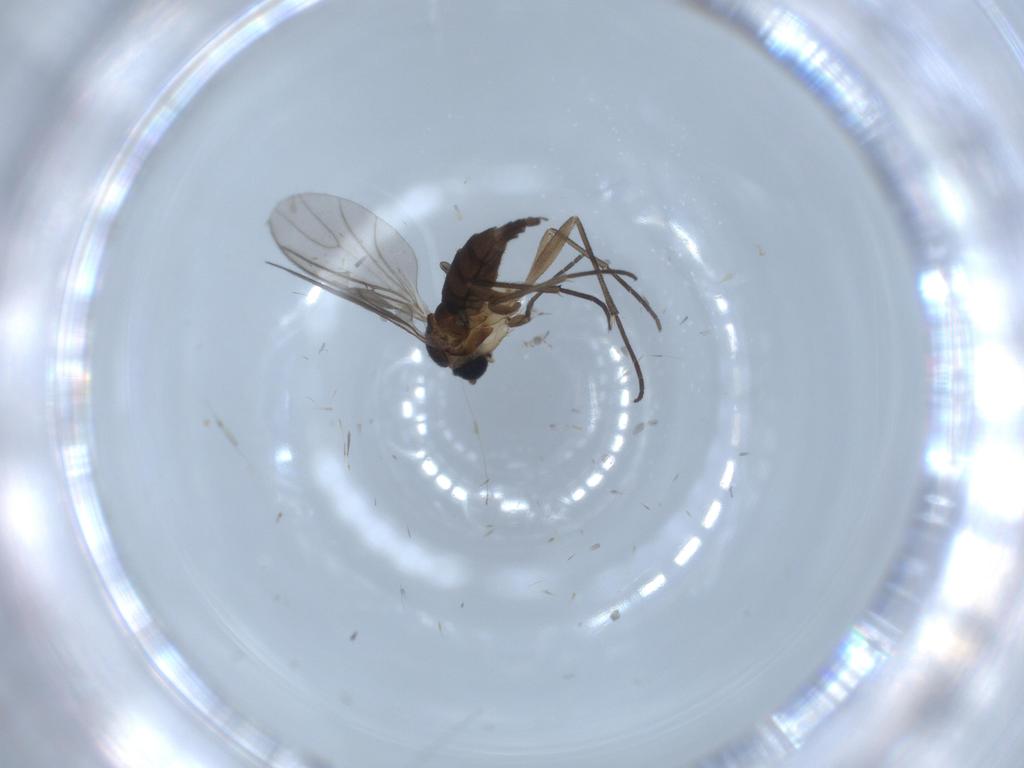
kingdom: Animalia
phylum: Arthropoda
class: Insecta
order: Diptera
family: Sciaridae
